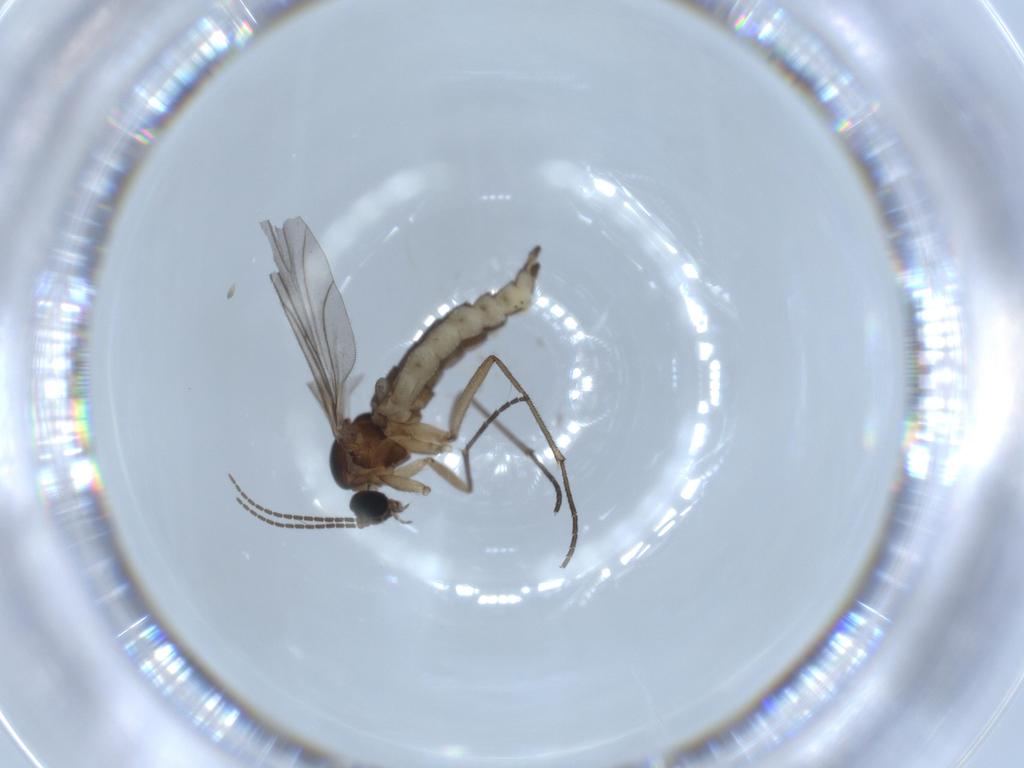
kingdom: Animalia
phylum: Arthropoda
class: Insecta
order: Diptera
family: Sciaridae
